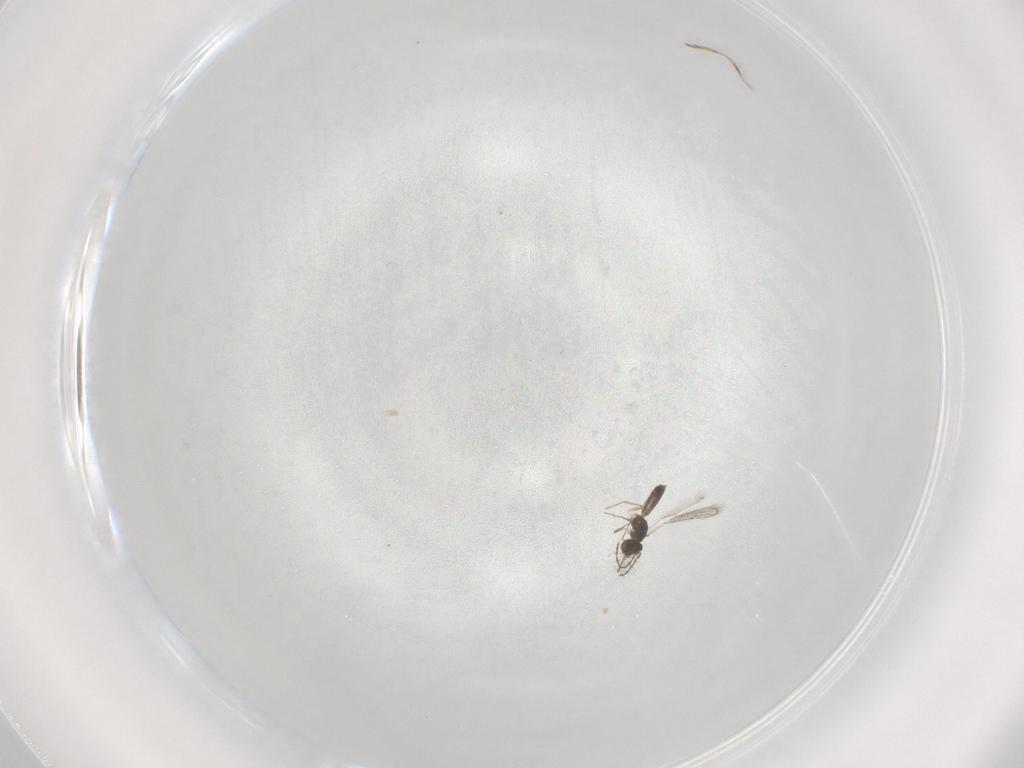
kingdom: Animalia
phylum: Arthropoda
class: Insecta
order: Hymenoptera
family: Pteromalidae
